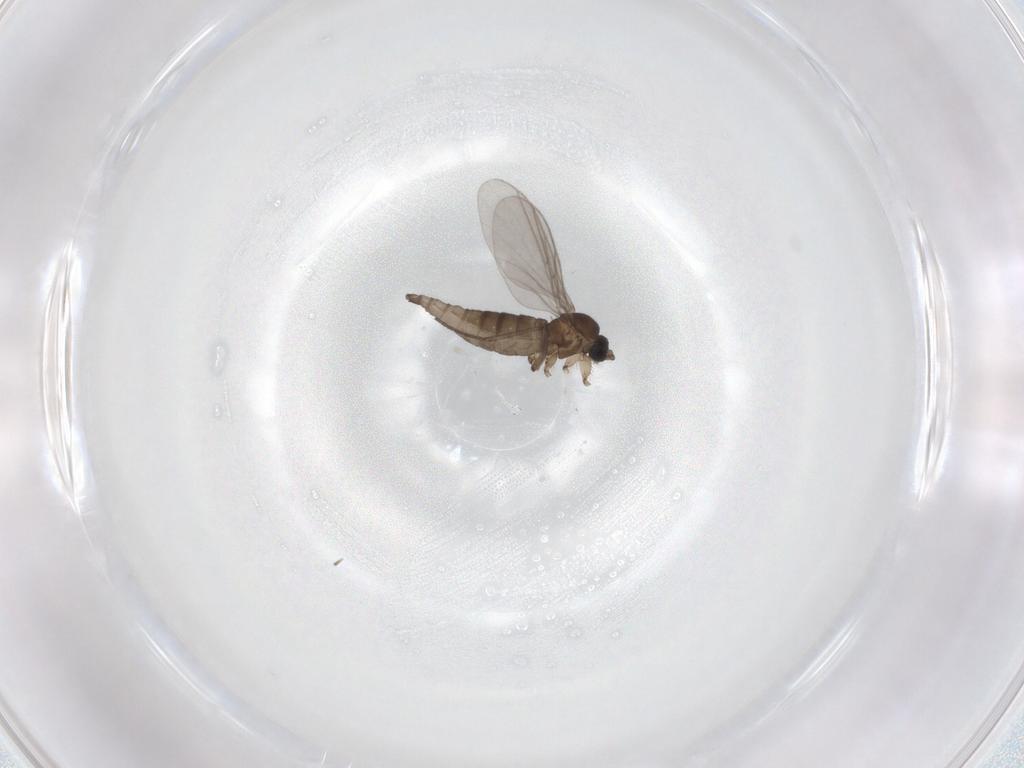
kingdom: Animalia
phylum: Arthropoda
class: Insecta
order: Diptera
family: Sciaridae
